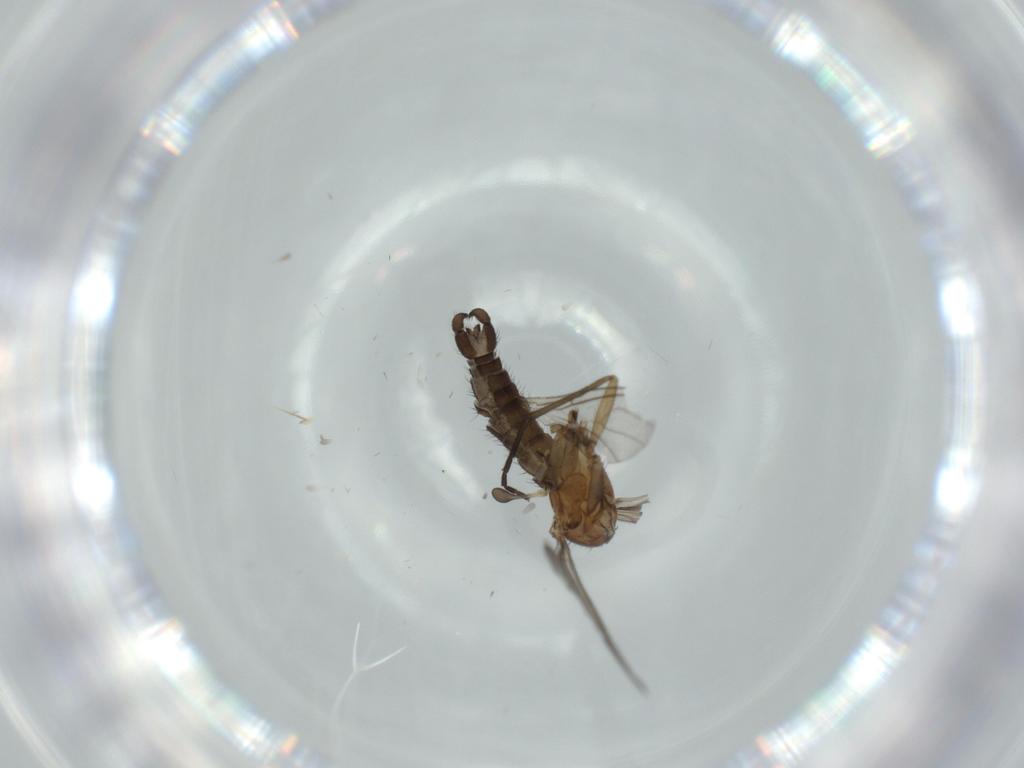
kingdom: Animalia
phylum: Arthropoda
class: Insecta
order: Diptera
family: Sciaridae
